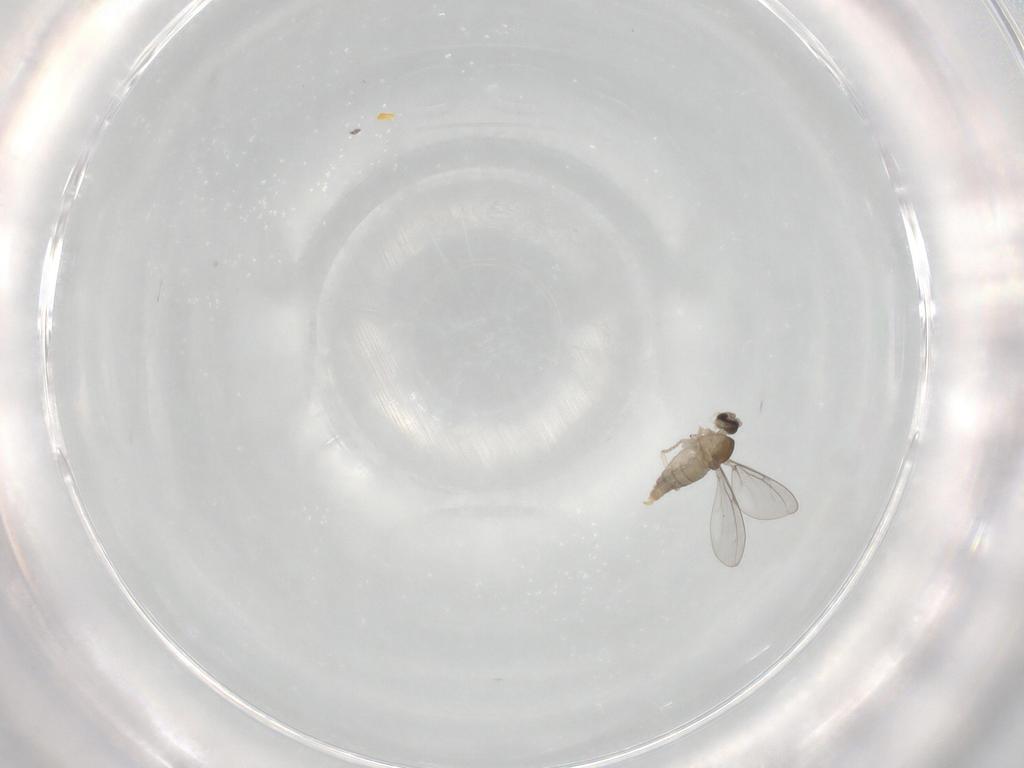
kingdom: Animalia
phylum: Arthropoda
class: Insecta
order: Diptera
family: Cecidomyiidae
